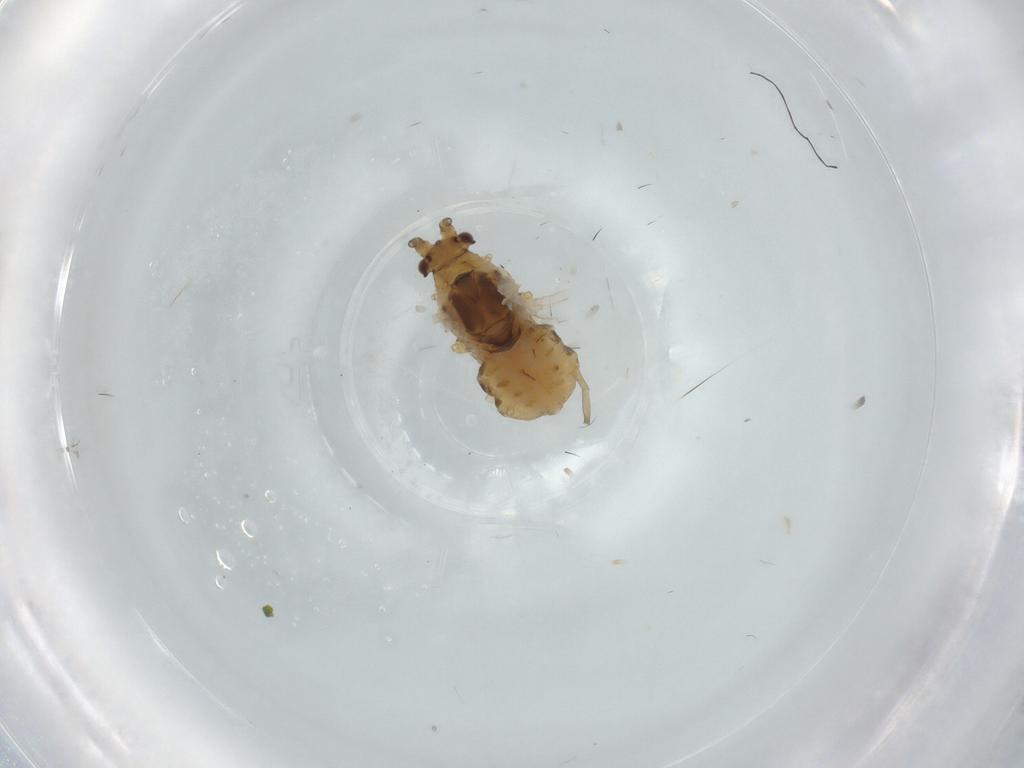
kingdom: Animalia
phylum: Arthropoda
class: Insecta
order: Hemiptera
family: Aphididae
